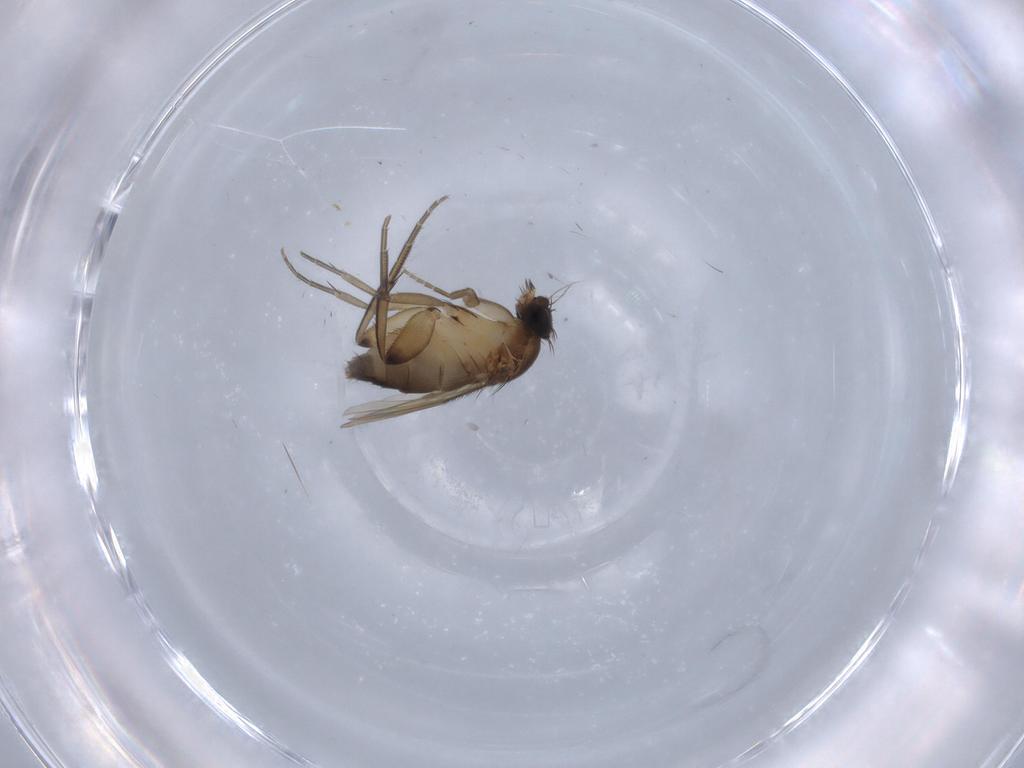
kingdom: Animalia
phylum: Arthropoda
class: Insecta
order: Diptera
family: Phoridae
